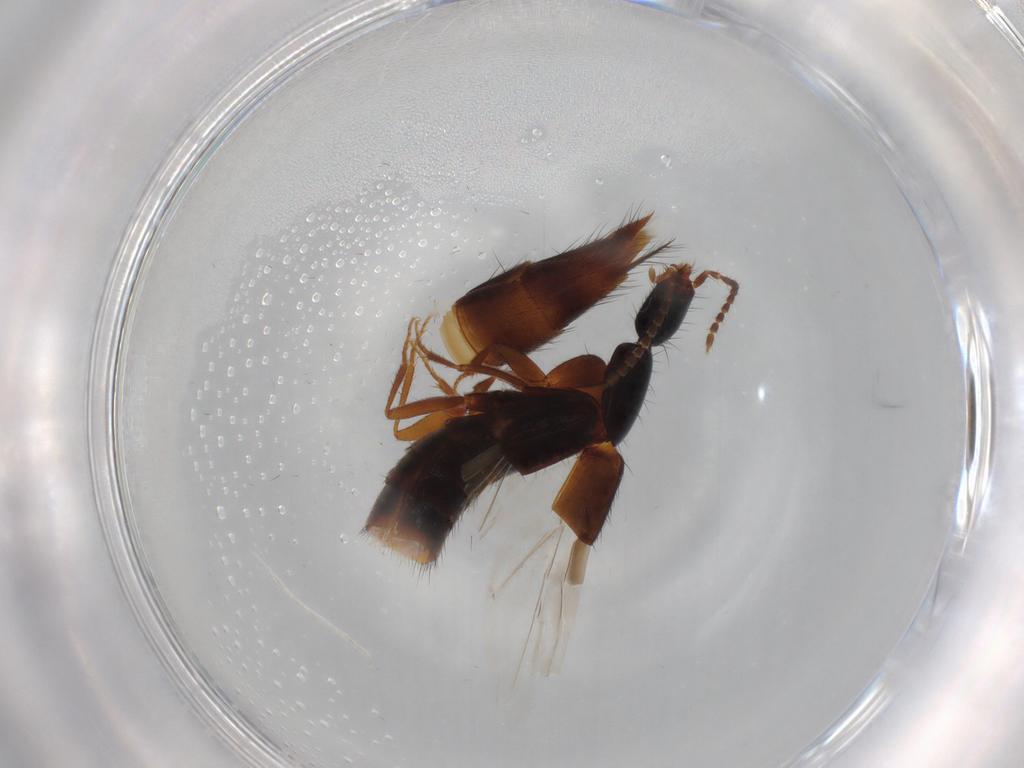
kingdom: Animalia
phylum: Arthropoda
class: Insecta
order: Coleoptera
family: Staphylinidae
